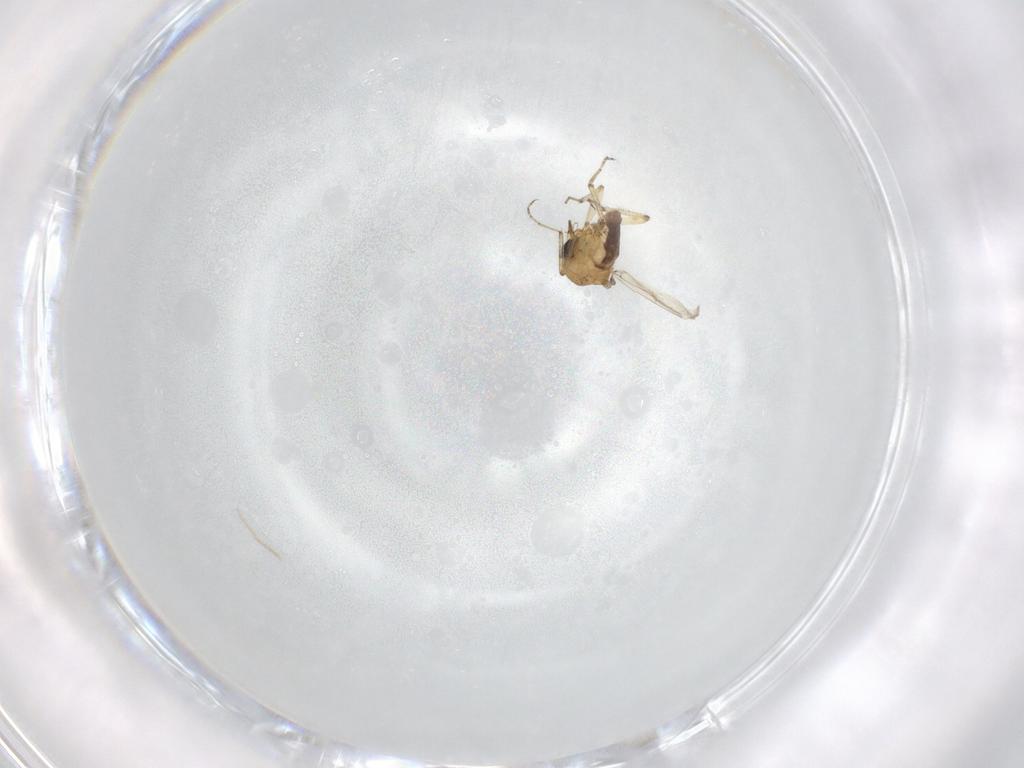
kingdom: Animalia
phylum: Arthropoda
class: Insecta
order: Diptera
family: Ceratopogonidae
